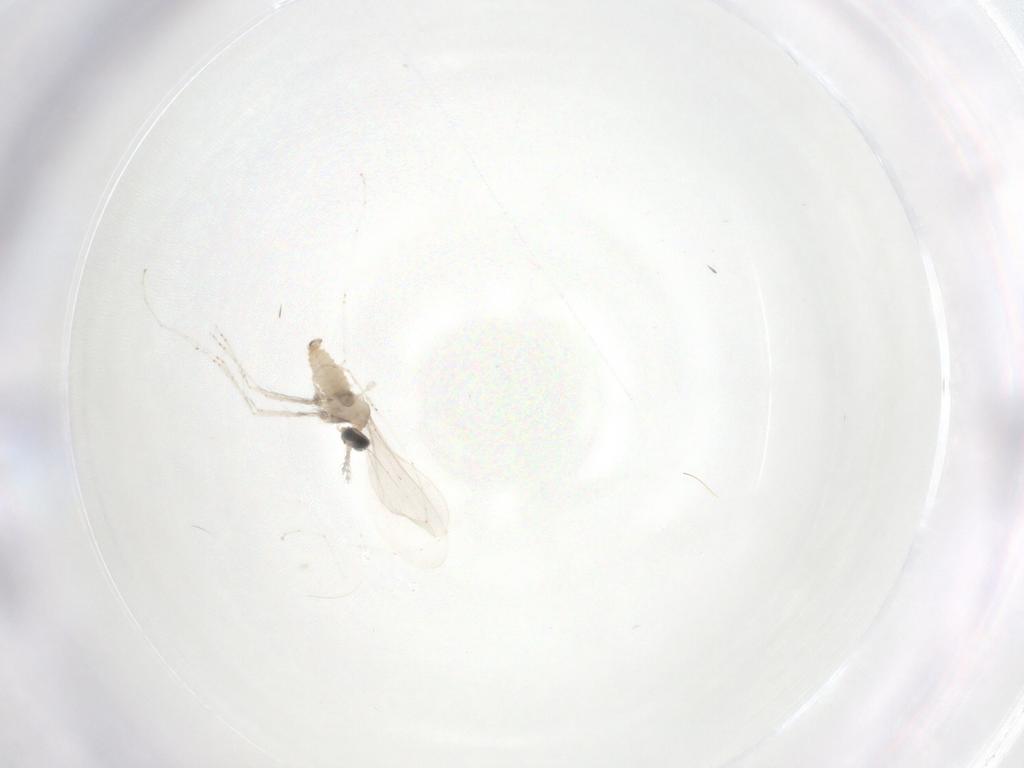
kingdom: Animalia
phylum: Arthropoda
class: Insecta
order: Diptera
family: Cecidomyiidae
